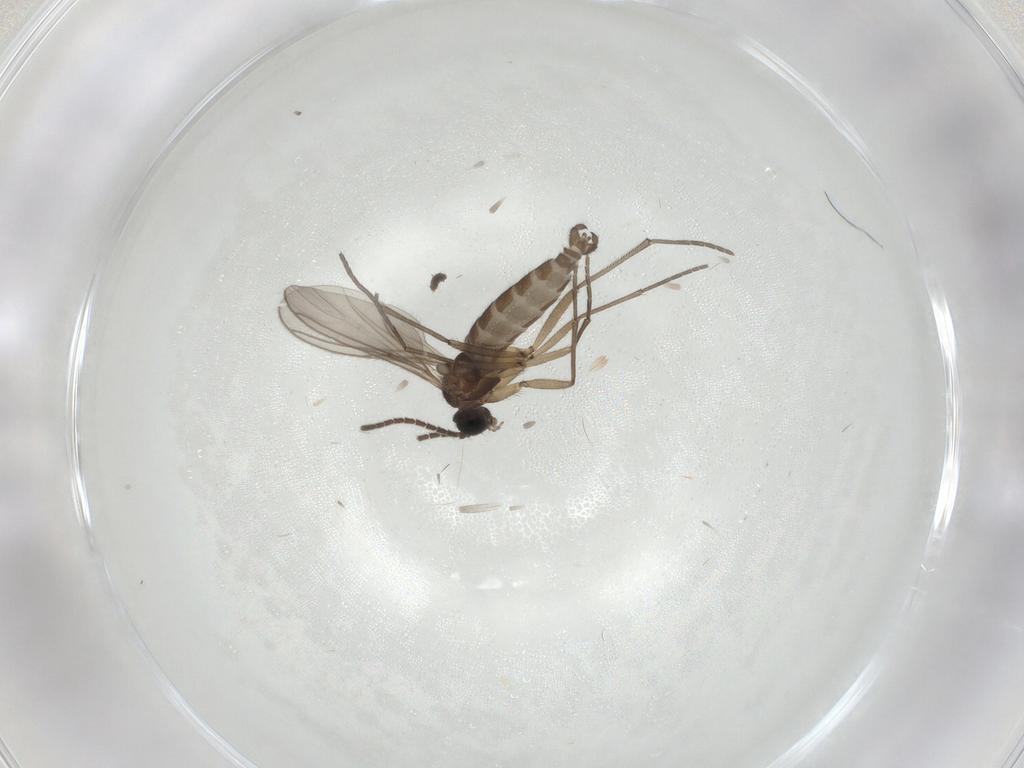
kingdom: Animalia
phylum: Arthropoda
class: Insecta
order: Diptera
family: Sciaridae
